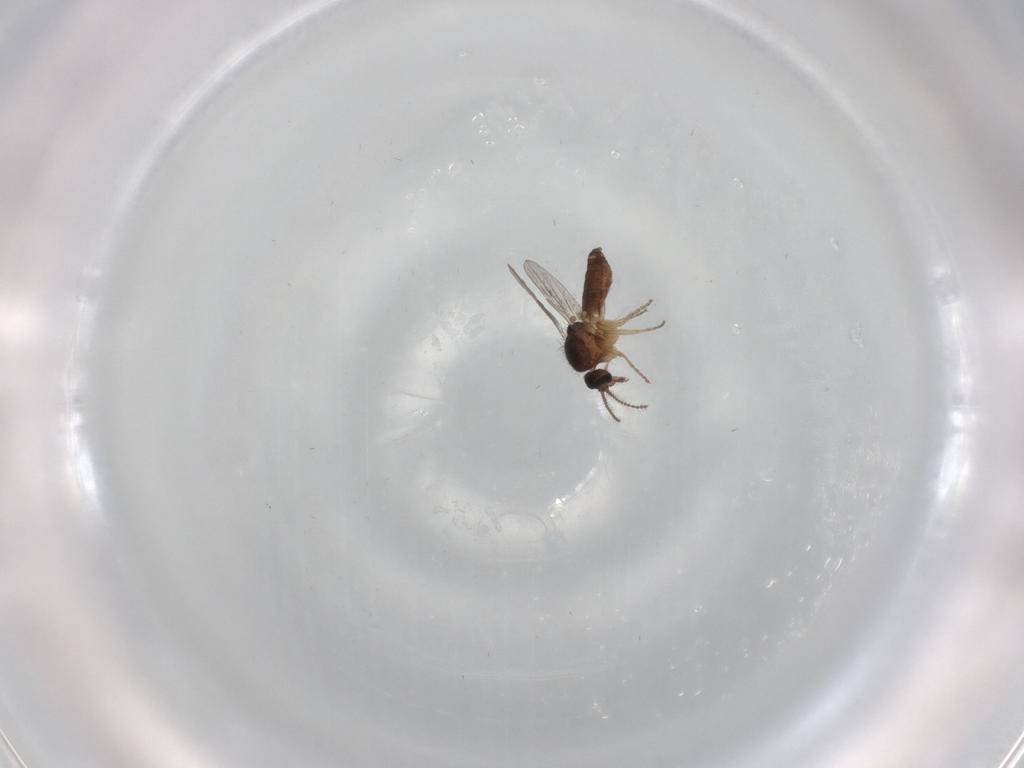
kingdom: Animalia
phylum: Arthropoda
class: Insecta
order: Diptera
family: Ceratopogonidae
